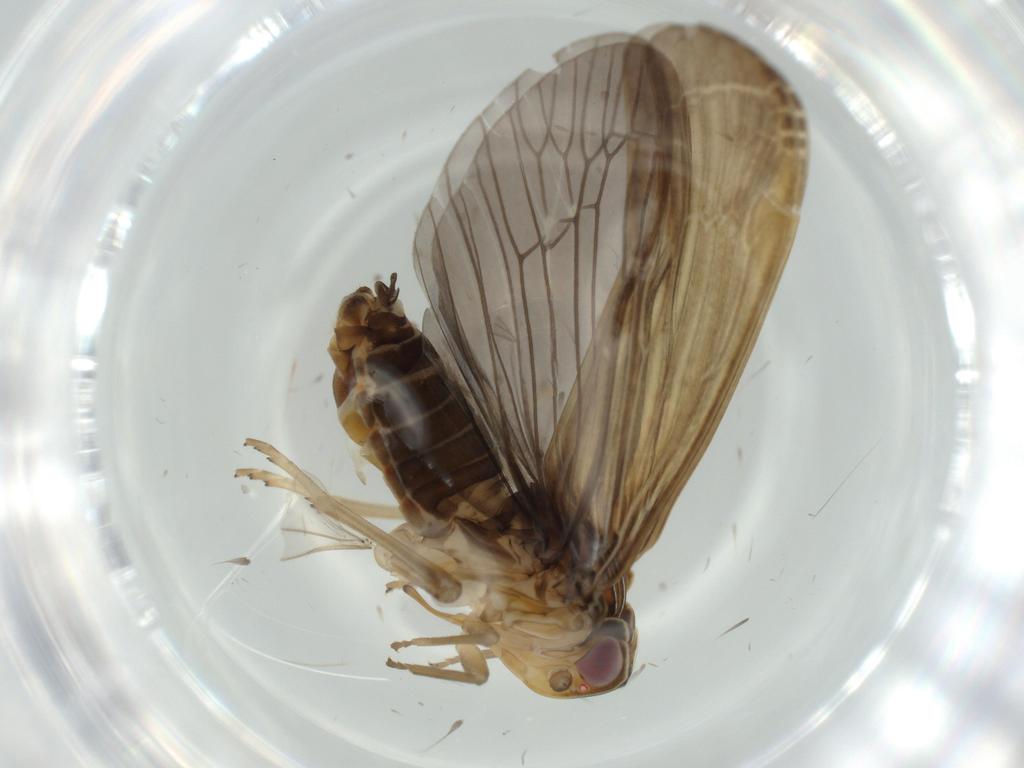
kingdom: Animalia
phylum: Arthropoda
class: Insecta
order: Hemiptera
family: Achilidae
